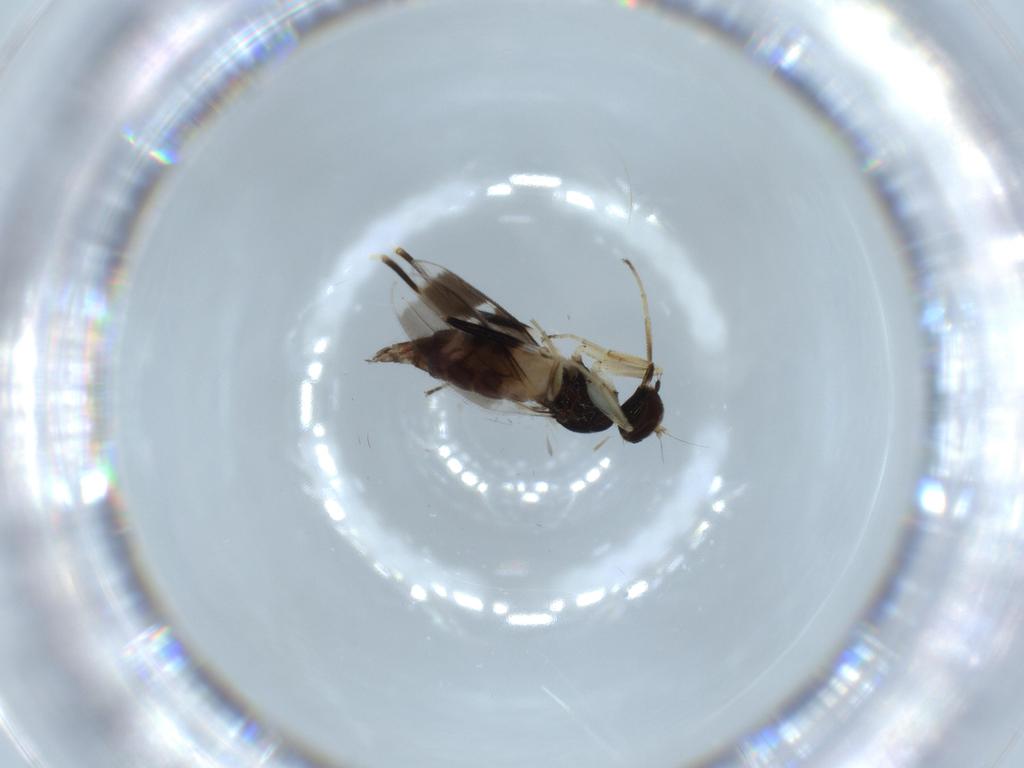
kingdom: Animalia
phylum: Arthropoda
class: Insecta
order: Diptera
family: Hybotidae
